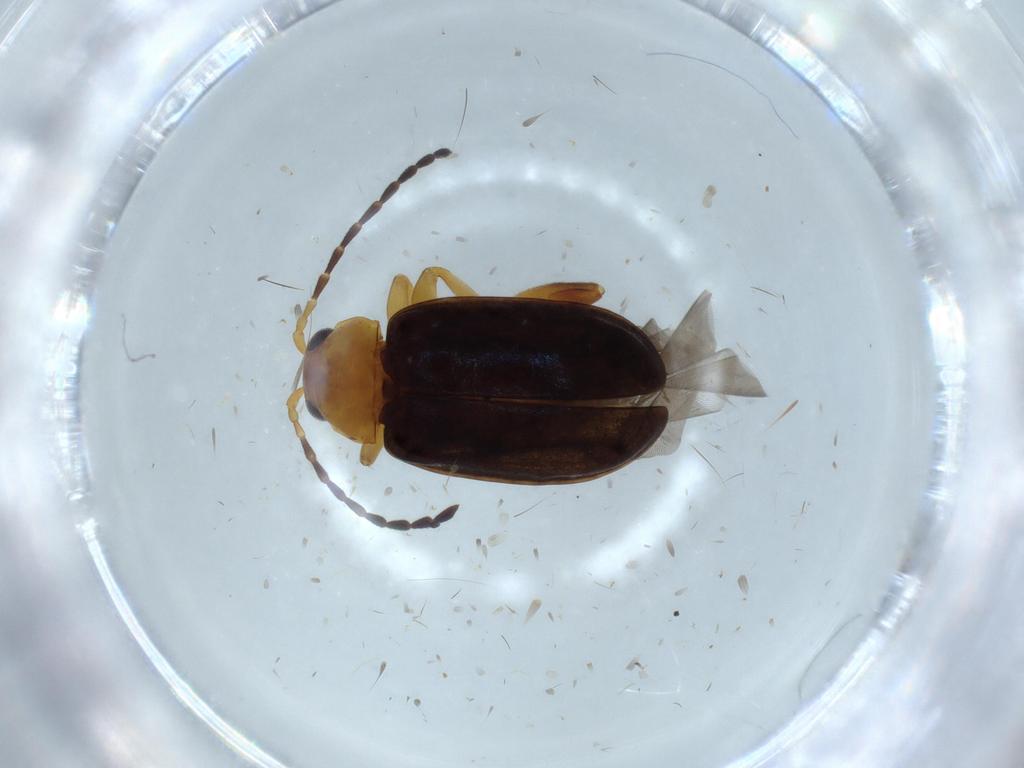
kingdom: Animalia
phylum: Arthropoda
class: Insecta
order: Coleoptera
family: Chrysomelidae
